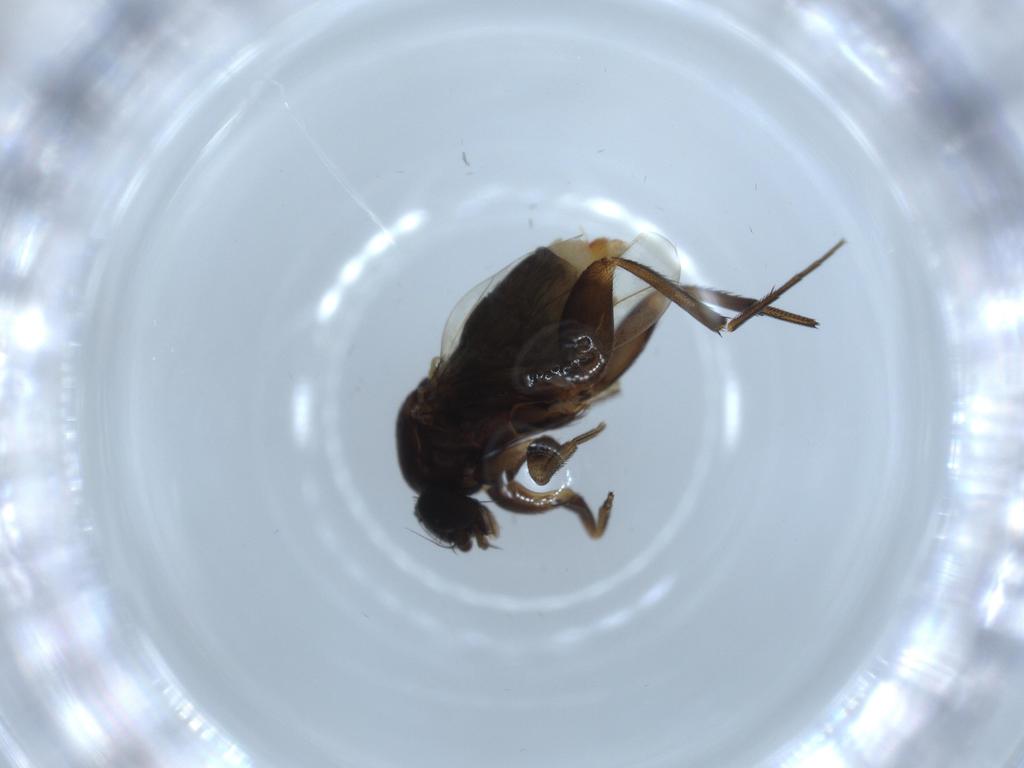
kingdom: Animalia
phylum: Arthropoda
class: Insecta
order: Diptera
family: Phoridae
